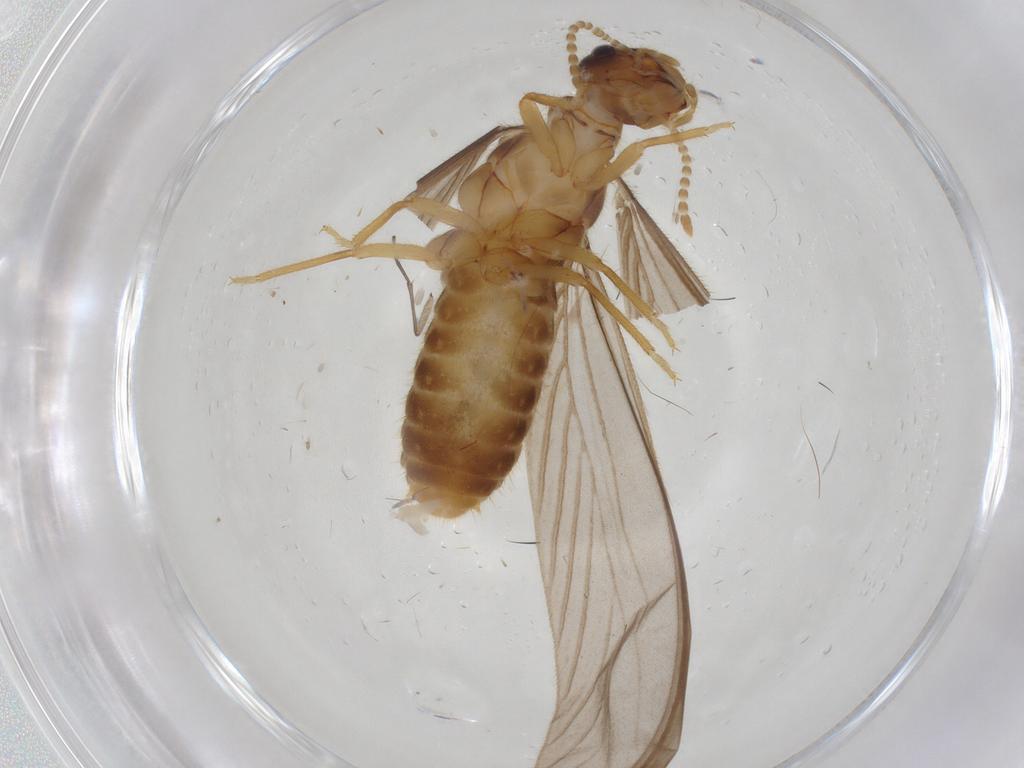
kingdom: Animalia
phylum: Arthropoda
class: Insecta
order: Blattodea
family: Termitidae
